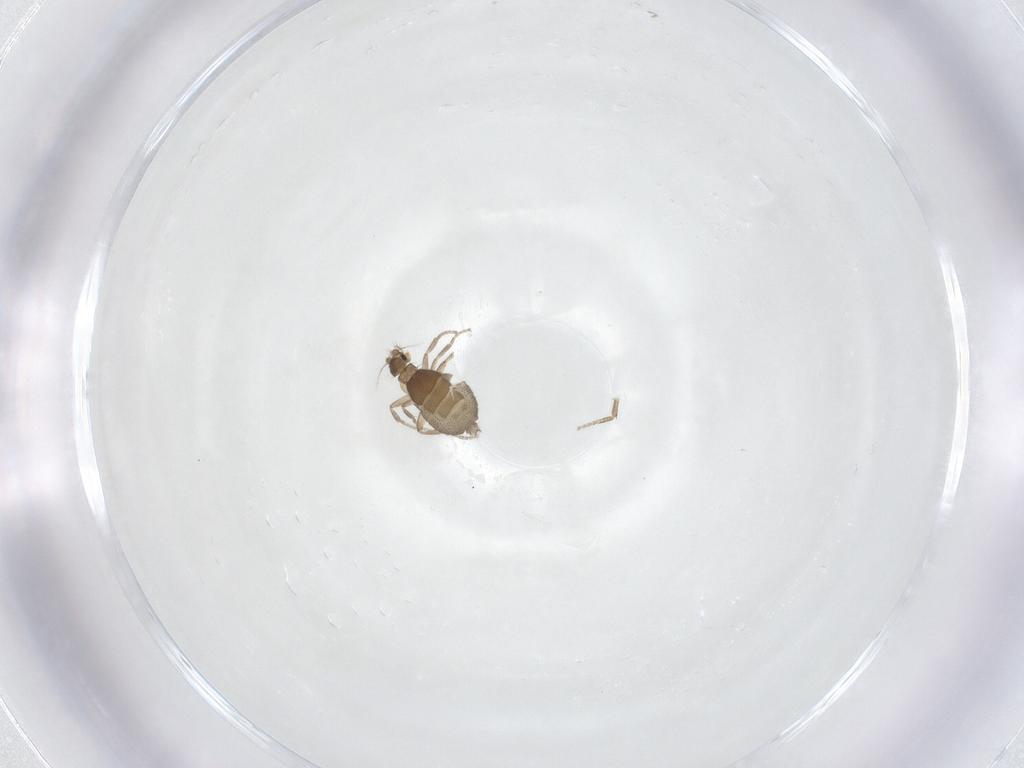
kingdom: Animalia
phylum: Arthropoda
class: Insecta
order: Diptera
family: Phoridae
